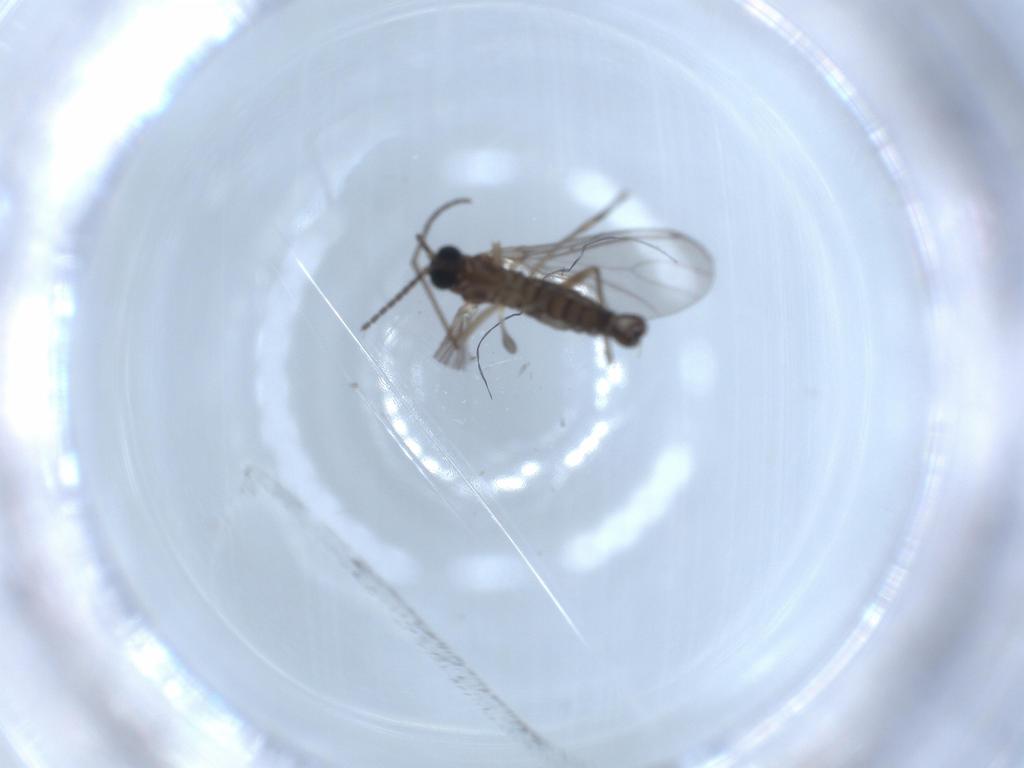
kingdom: Animalia
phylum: Arthropoda
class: Insecta
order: Diptera
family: Sciaridae
